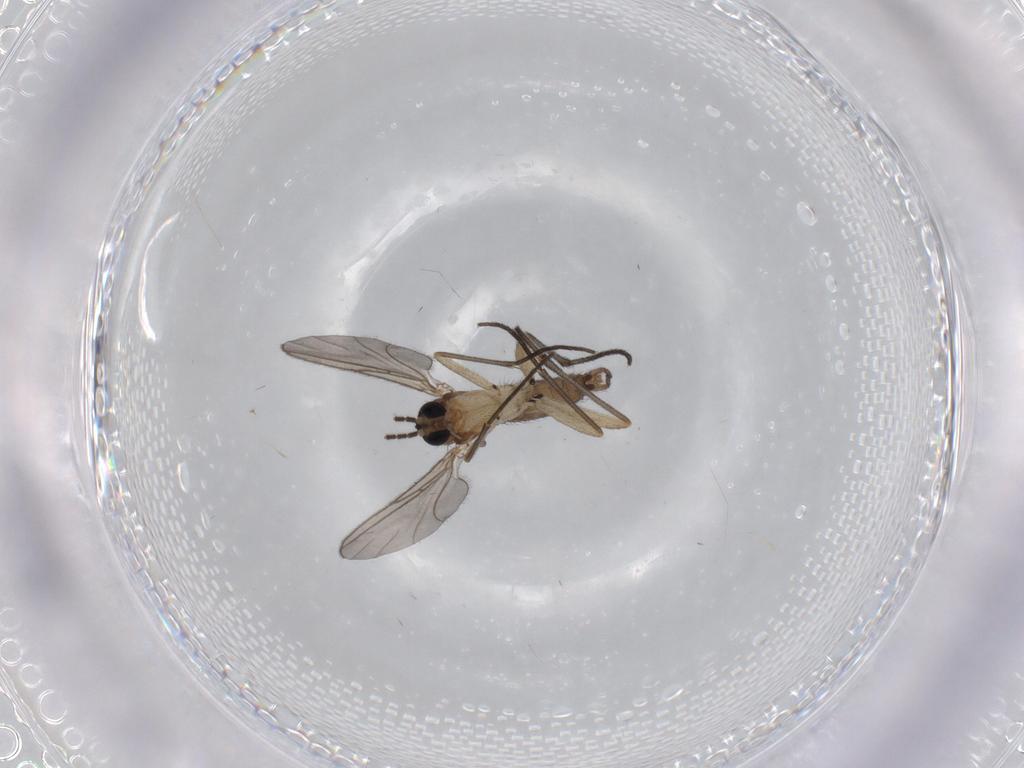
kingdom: Animalia
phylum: Arthropoda
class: Insecta
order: Diptera
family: Sciaridae
